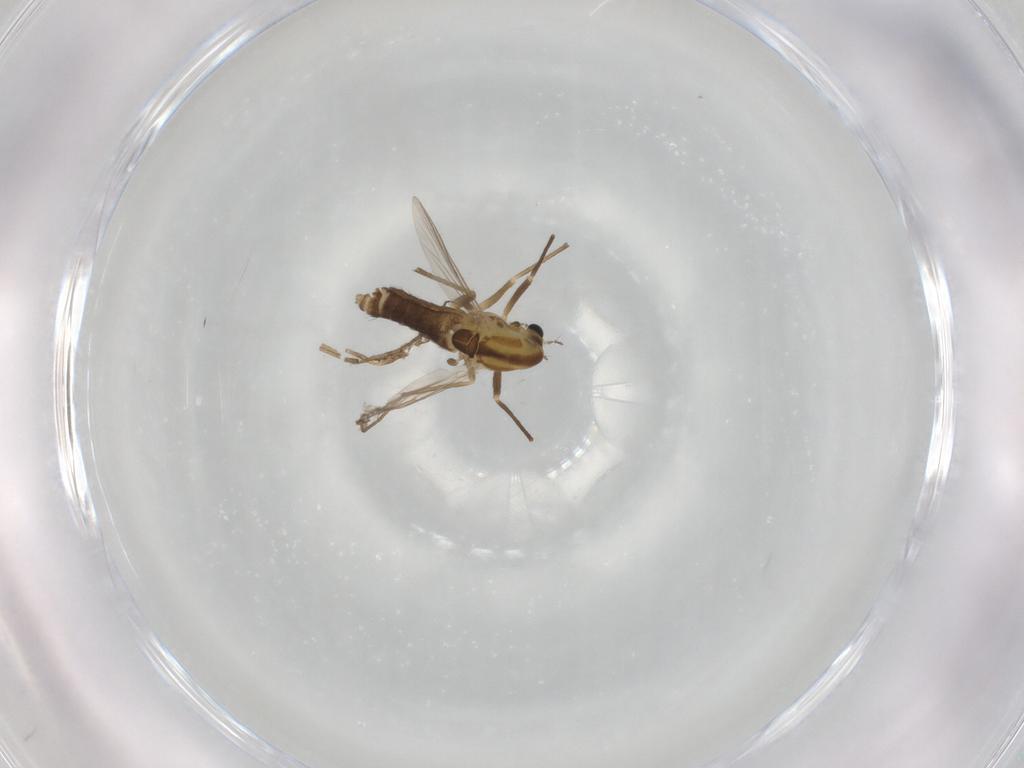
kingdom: Animalia
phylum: Arthropoda
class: Insecta
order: Diptera
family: Chironomidae
